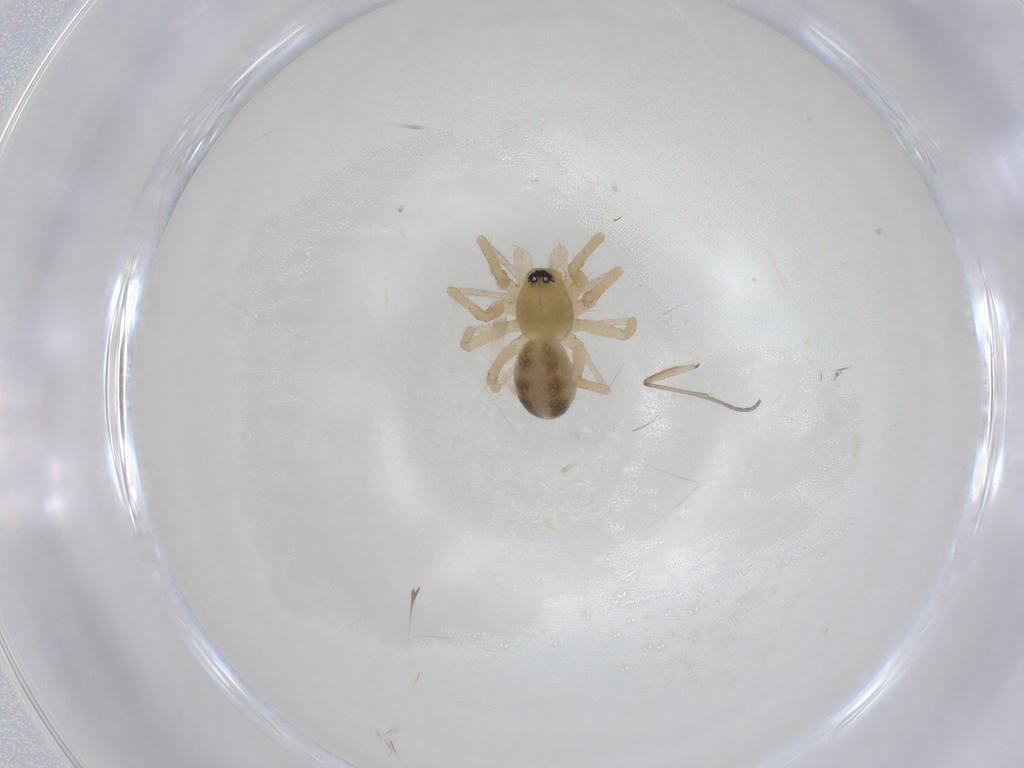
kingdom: Animalia
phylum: Arthropoda
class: Arachnida
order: Araneae
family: Linyphiidae
